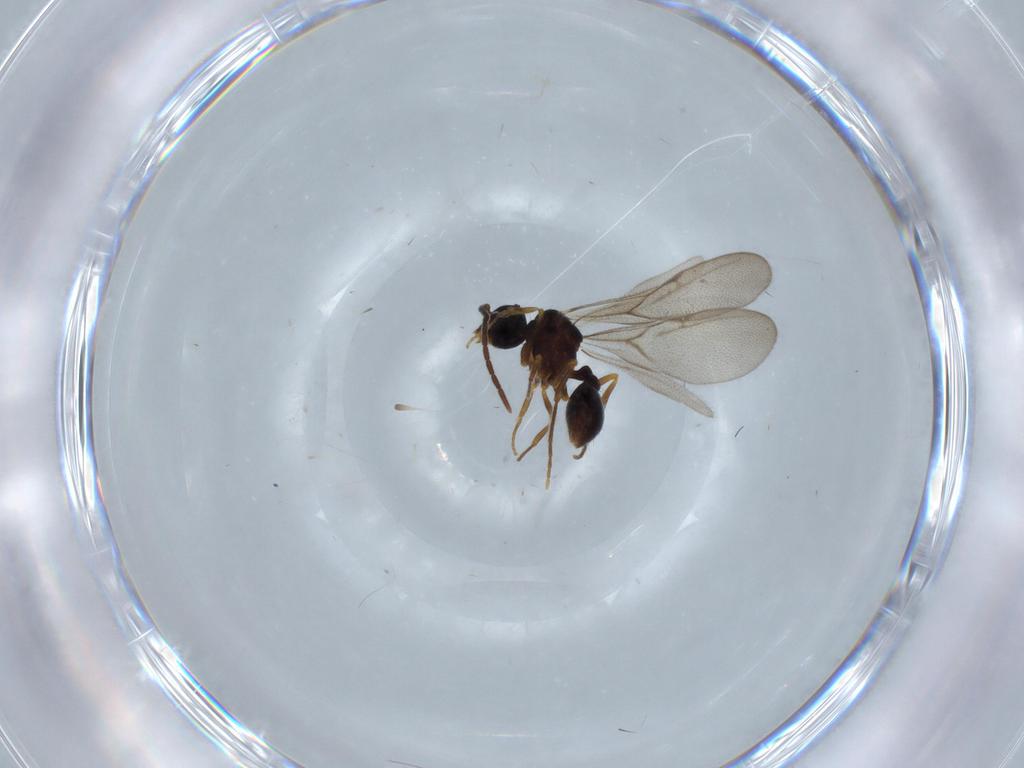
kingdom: Animalia
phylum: Arthropoda
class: Insecta
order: Hymenoptera
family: Formicidae
